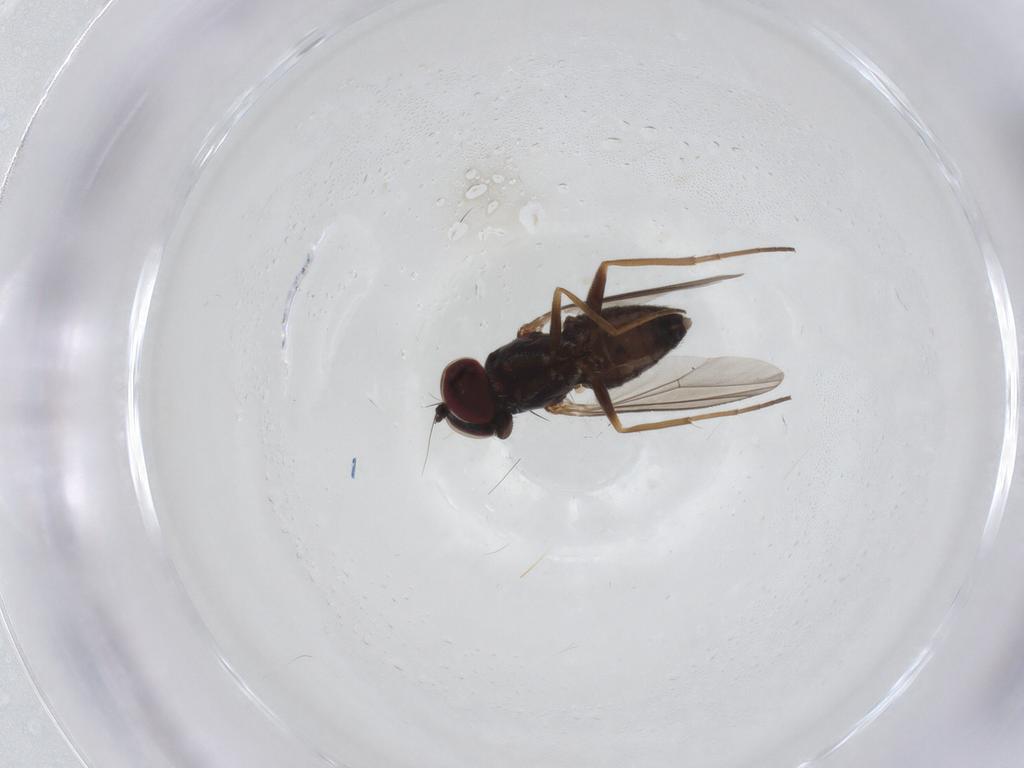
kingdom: Animalia
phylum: Arthropoda
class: Insecta
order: Diptera
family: Dolichopodidae
